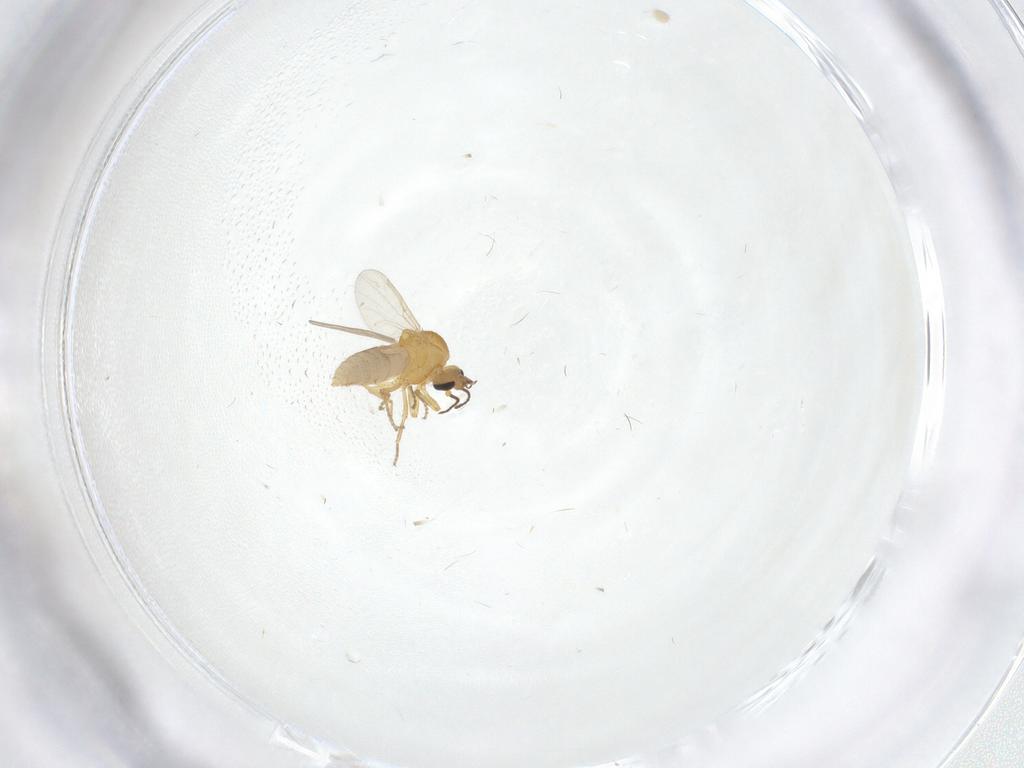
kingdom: Animalia
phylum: Arthropoda
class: Insecta
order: Diptera
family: Ceratopogonidae
